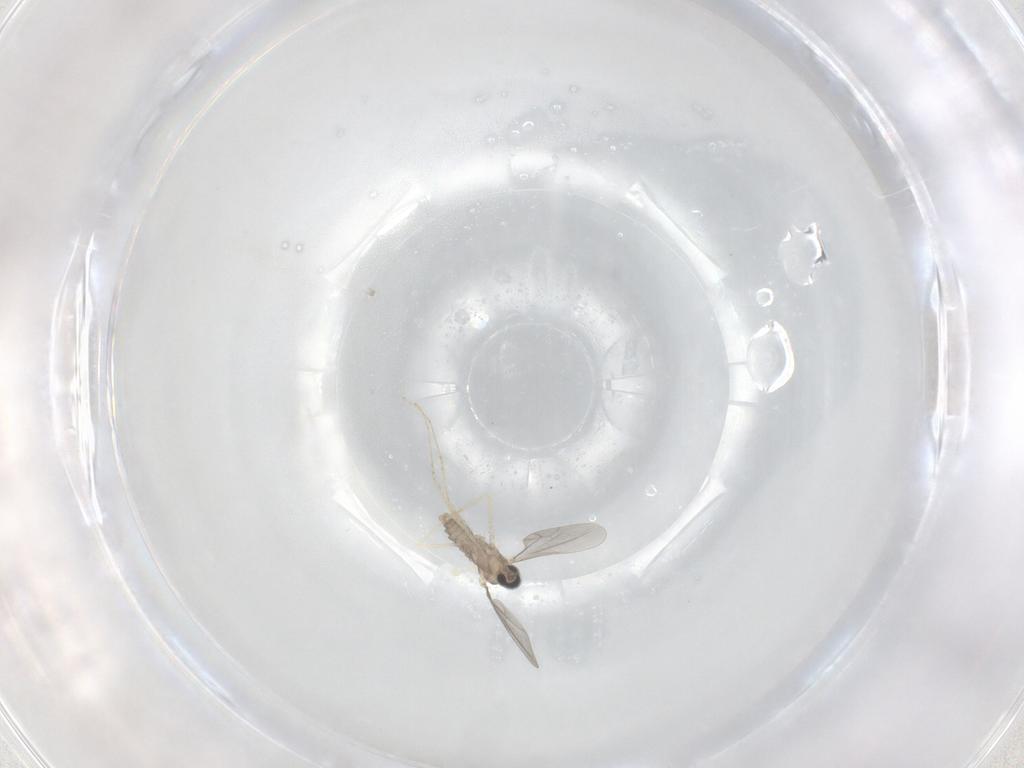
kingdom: Animalia
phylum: Arthropoda
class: Insecta
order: Diptera
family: Cecidomyiidae
